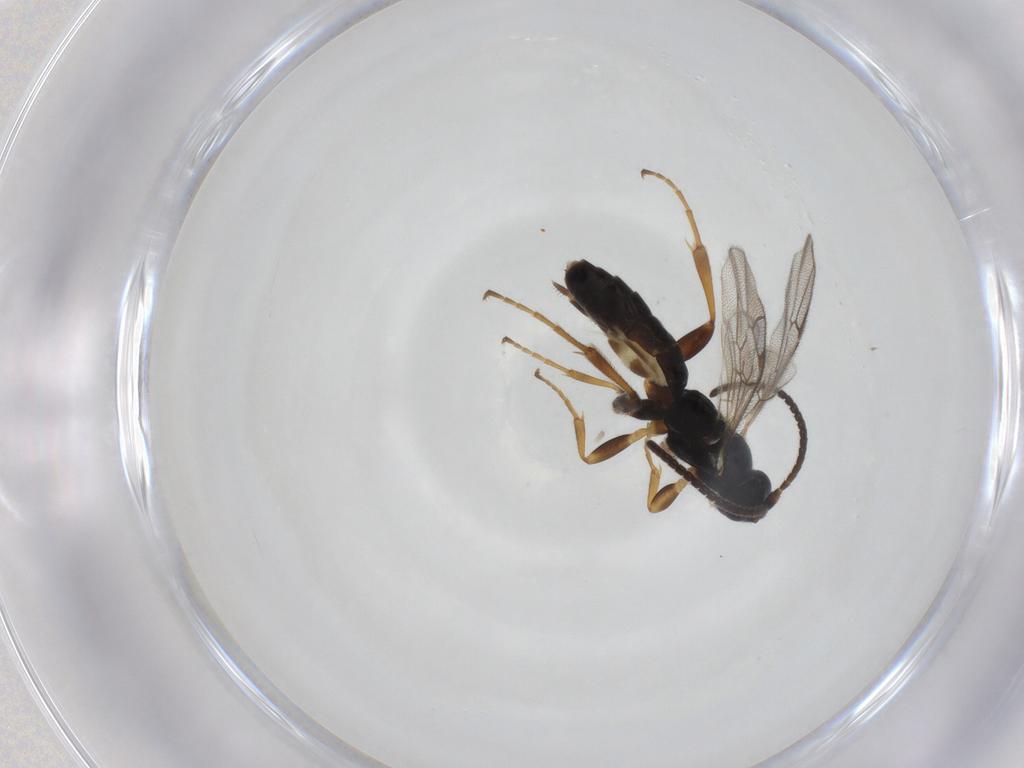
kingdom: Animalia
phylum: Arthropoda
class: Insecta
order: Hymenoptera
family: Ichneumonidae
